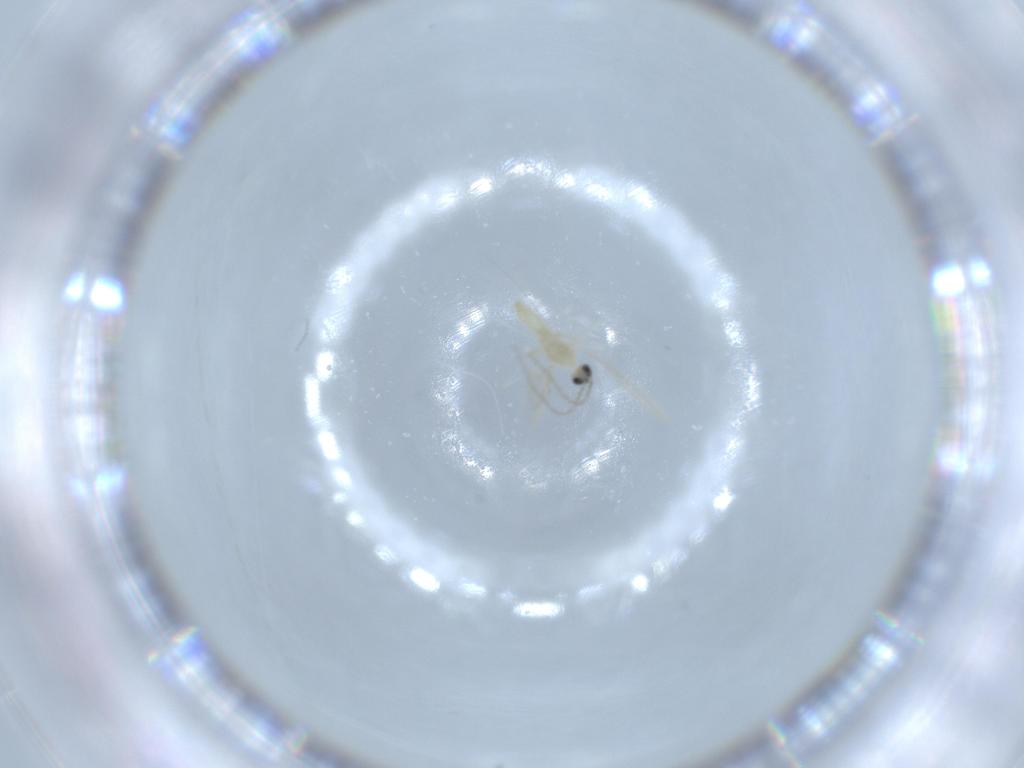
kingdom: Animalia
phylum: Arthropoda
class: Insecta
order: Diptera
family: Cecidomyiidae
